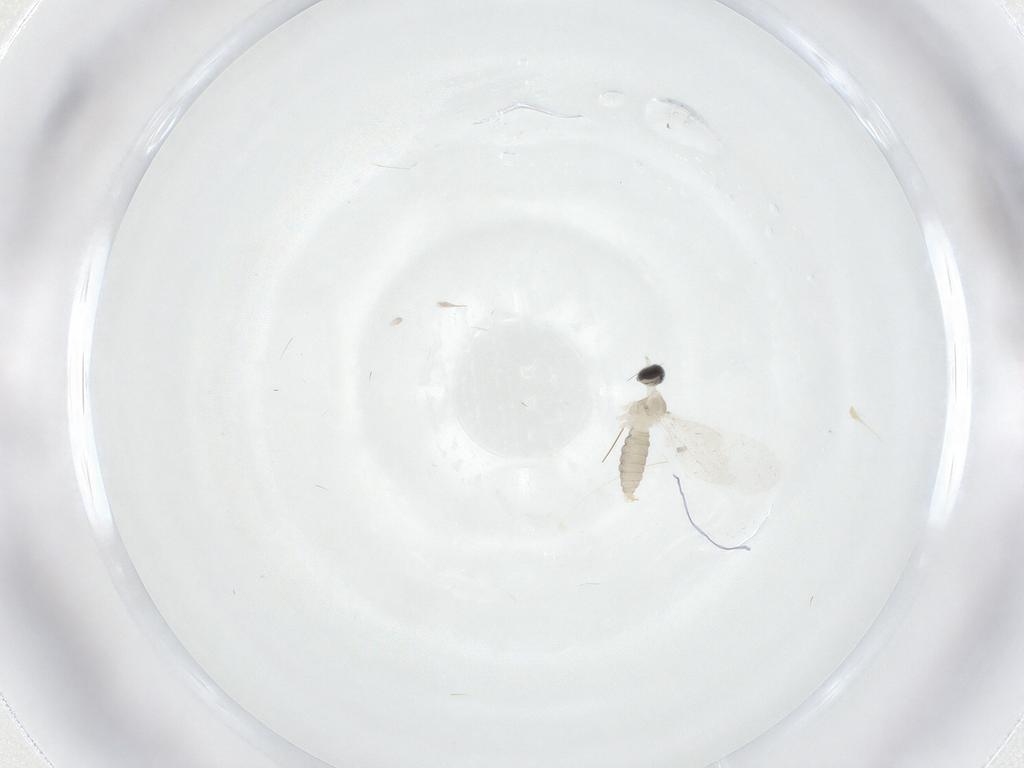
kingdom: Animalia
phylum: Arthropoda
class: Insecta
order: Diptera
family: Cecidomyiidae
